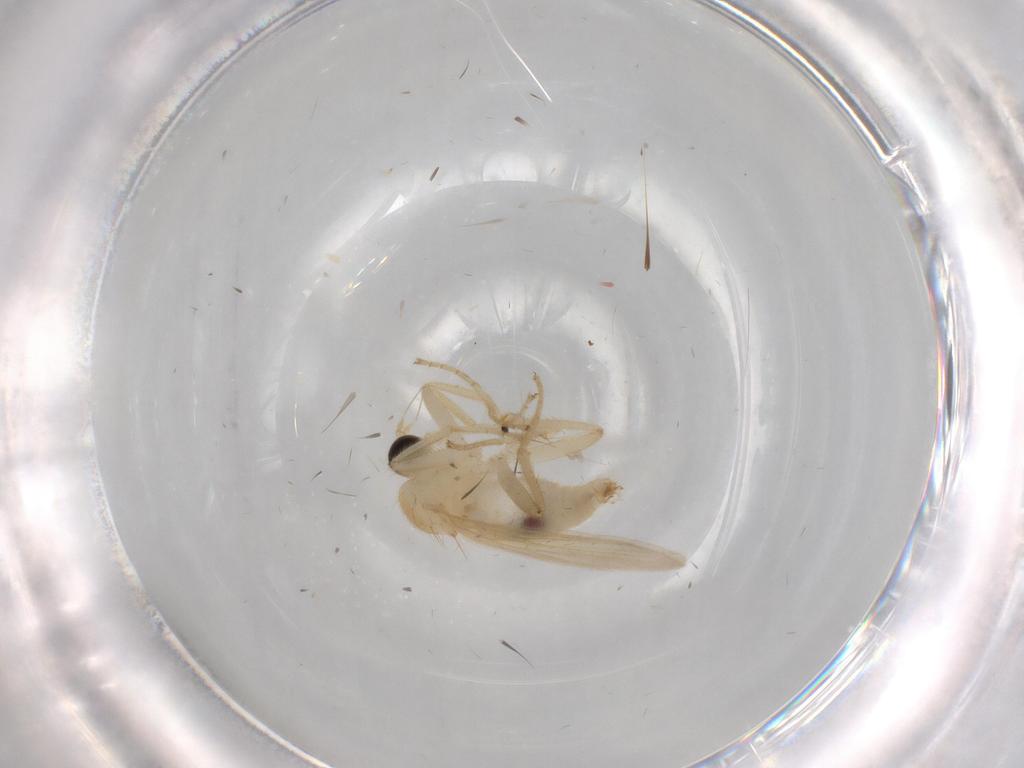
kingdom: Animalia
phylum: Arthropoda
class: Insecta
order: Diptera
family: Hybotidae
